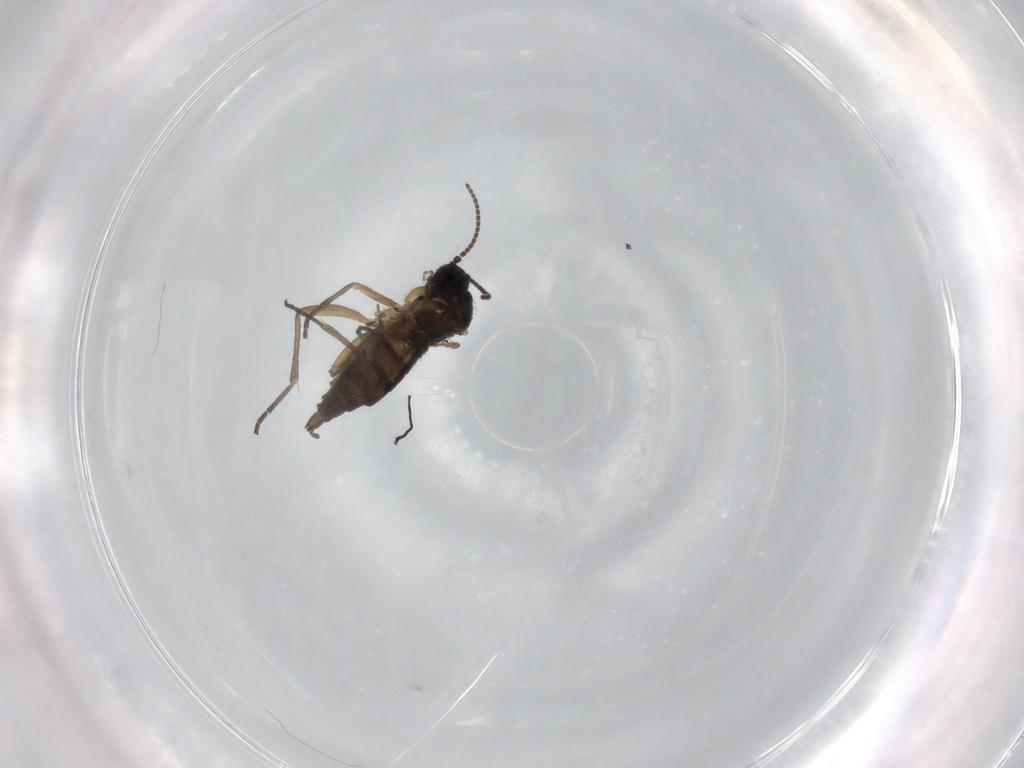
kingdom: Animalia
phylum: Arthropoda
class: Insecta
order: Diptera
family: Sciaridae
